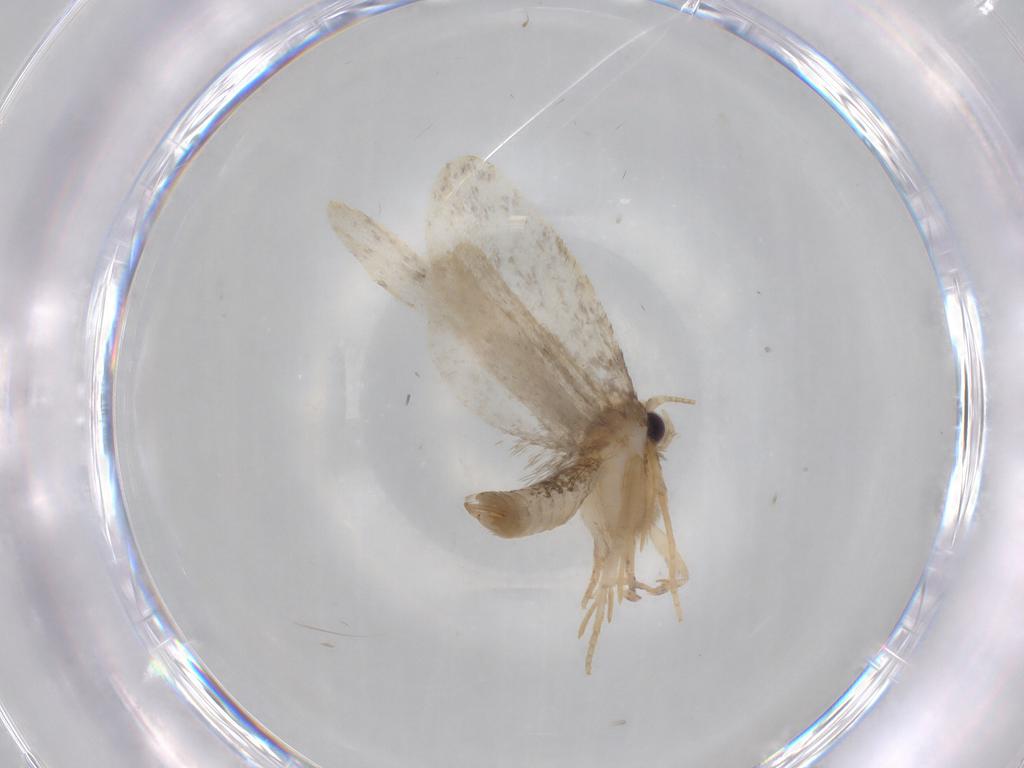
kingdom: Animalia
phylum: Arthropoda
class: Insecta
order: Lepidoptera
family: Psychidae
